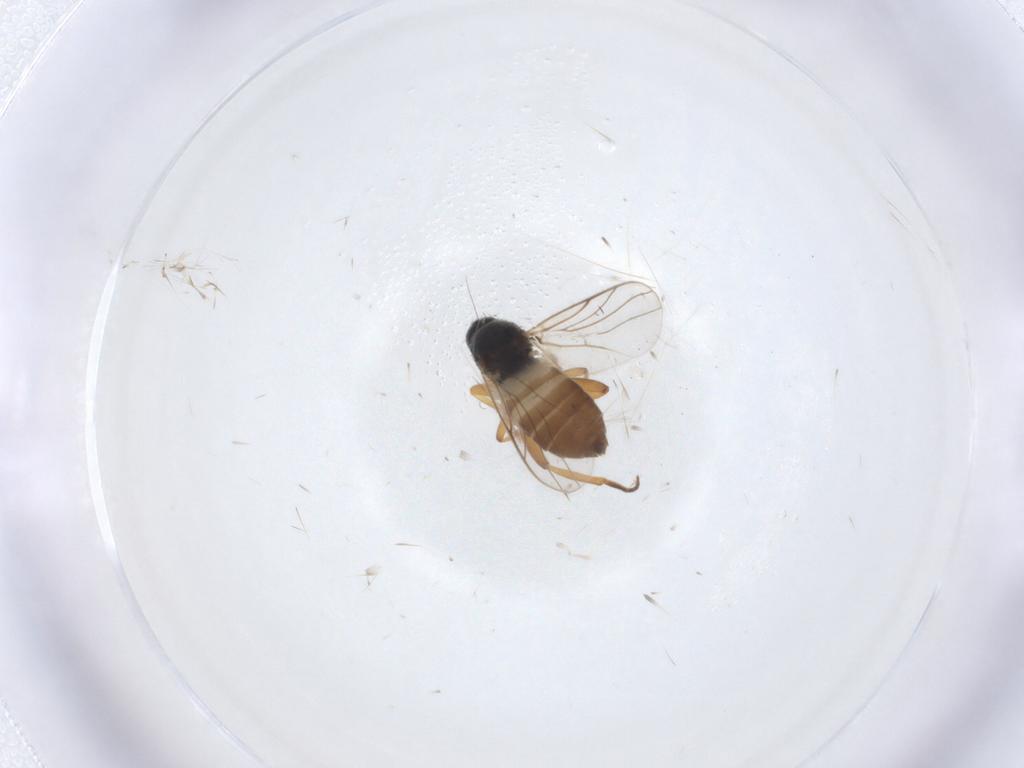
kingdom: Animalia
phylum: Arthropoda
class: Insecta
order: Diptera
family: Hybotidae
